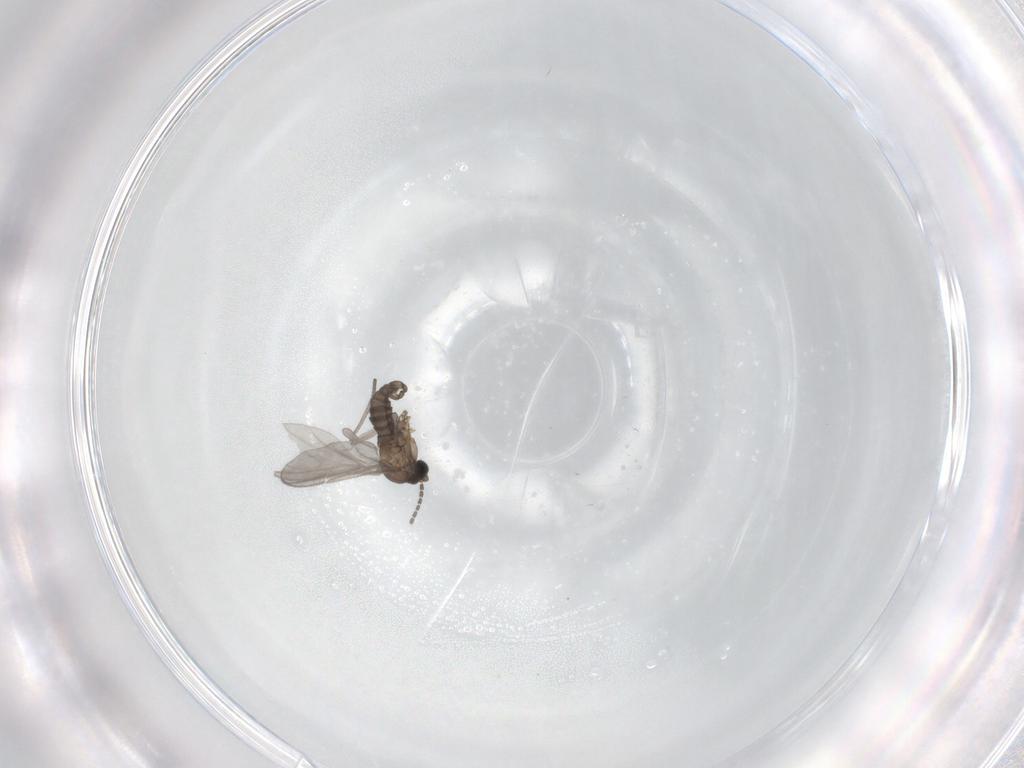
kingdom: Animalia
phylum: Arthropoda
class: Insecta
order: Diptera
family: Sciaridae
